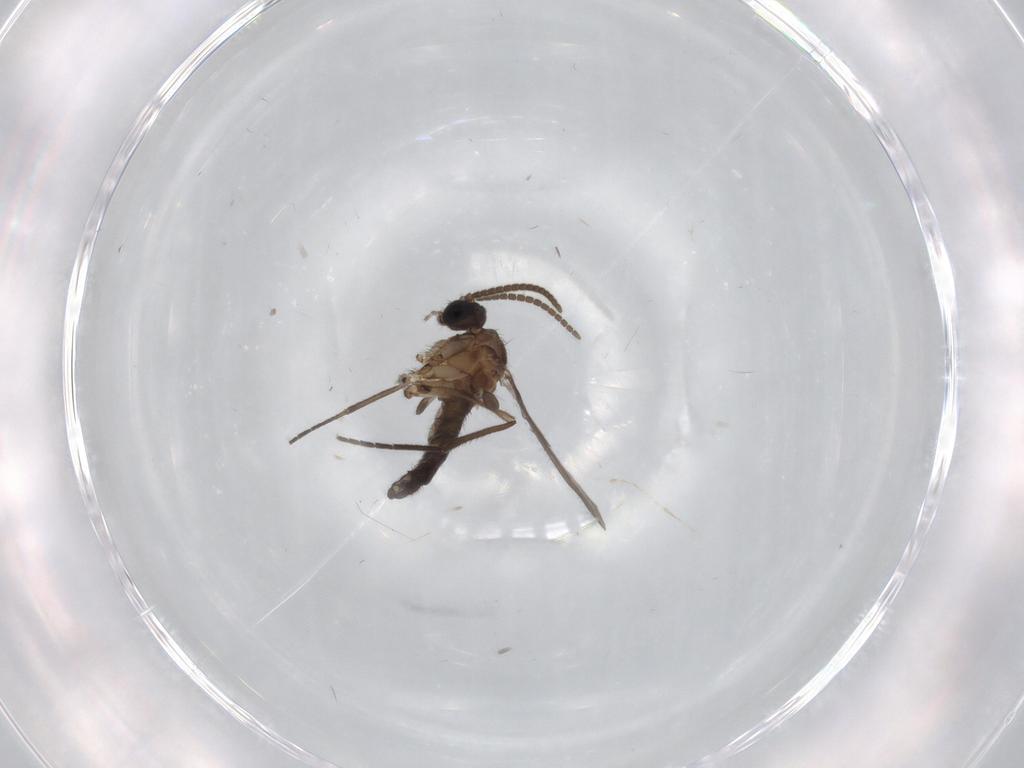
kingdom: Animalia
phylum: Arthropoda
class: Insecta
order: Diptera
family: Sciaridae
